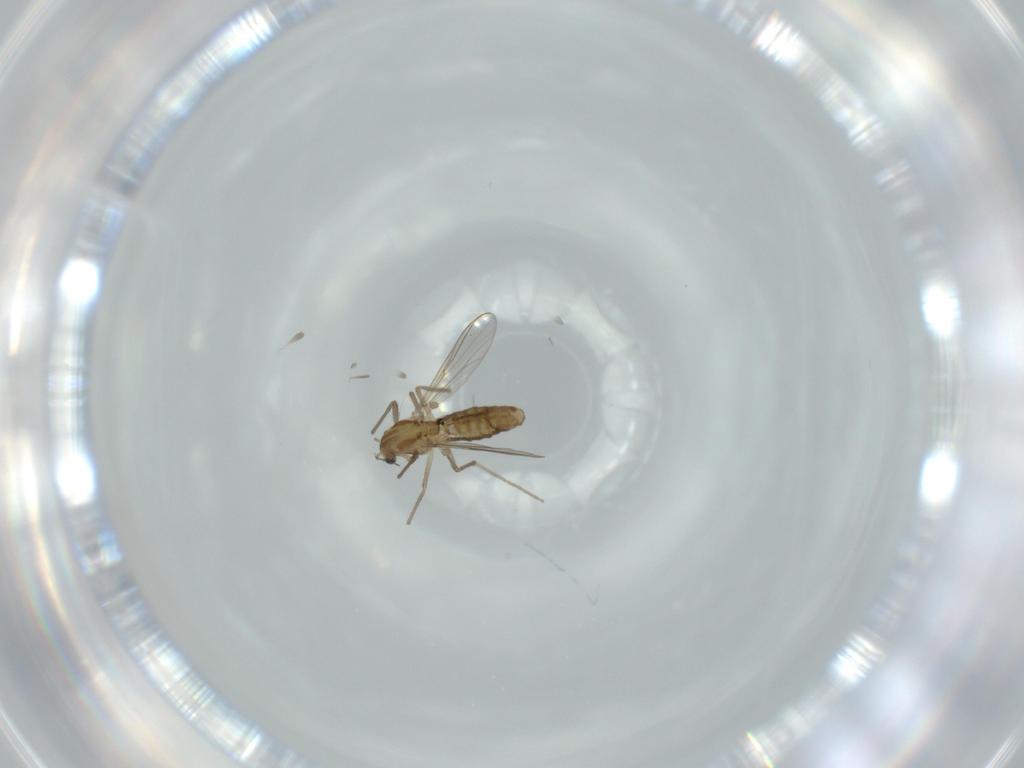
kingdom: Animalia
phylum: Arthropoda
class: Insecta
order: Diptera
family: Chironomidae
